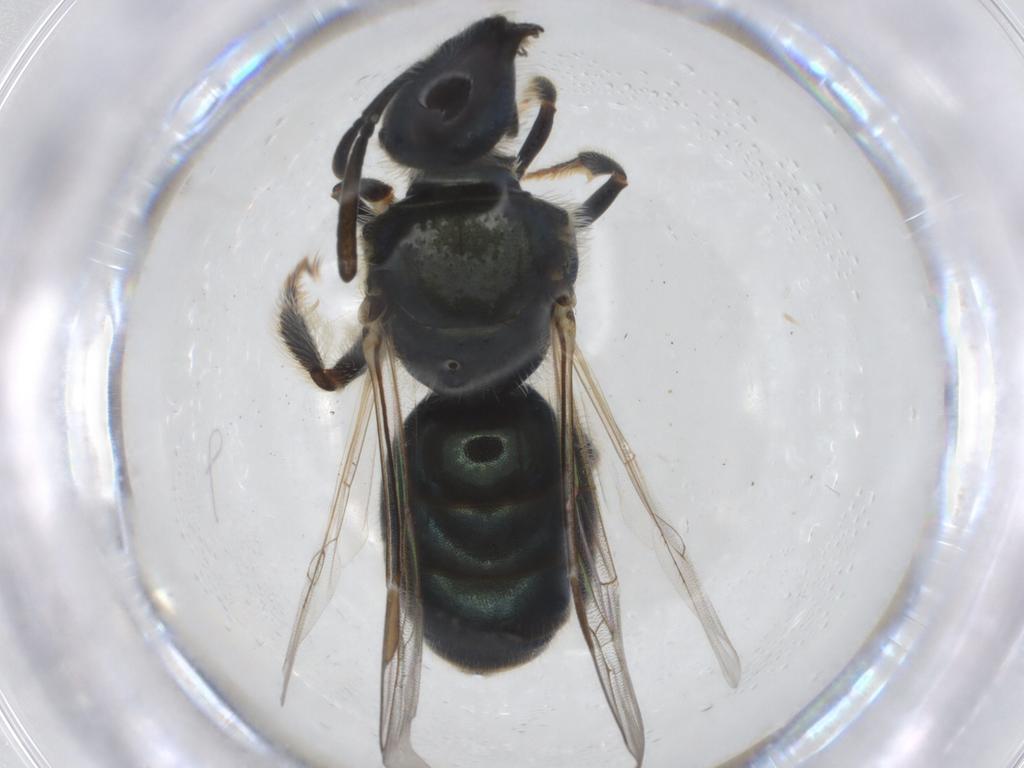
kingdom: Animalia
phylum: Arthropoda
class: Insecta
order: Hymenoptera
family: Halictidae
